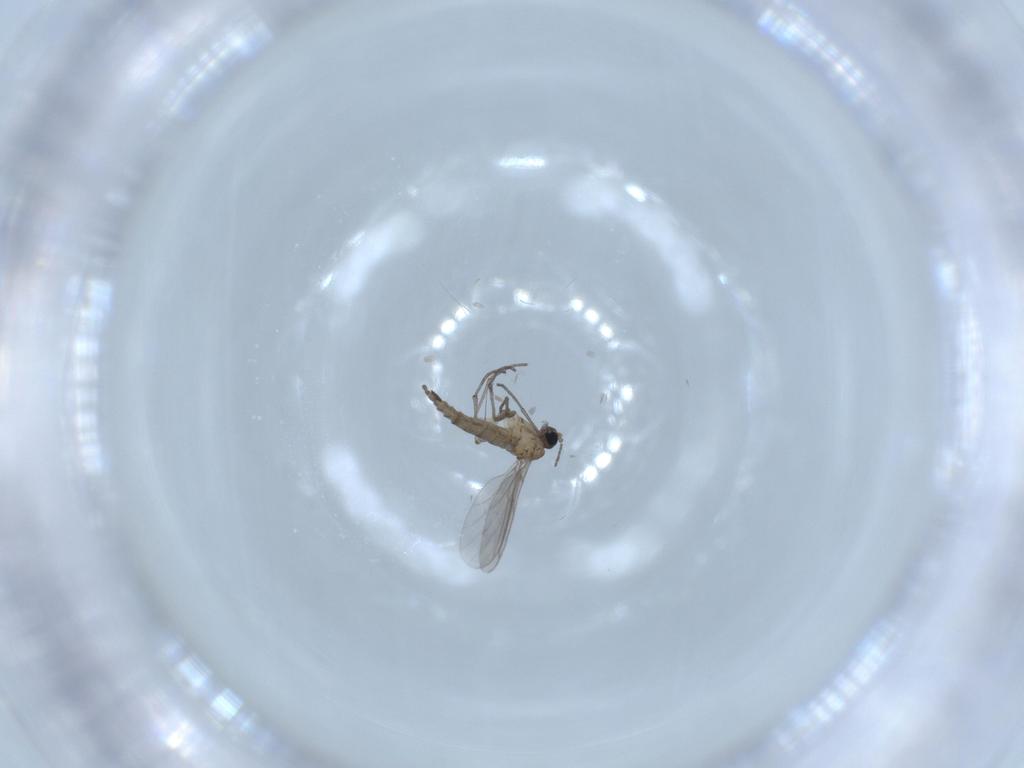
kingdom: Animalia
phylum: Arthropoda
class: Insecta
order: Diptera
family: Sciaridae
